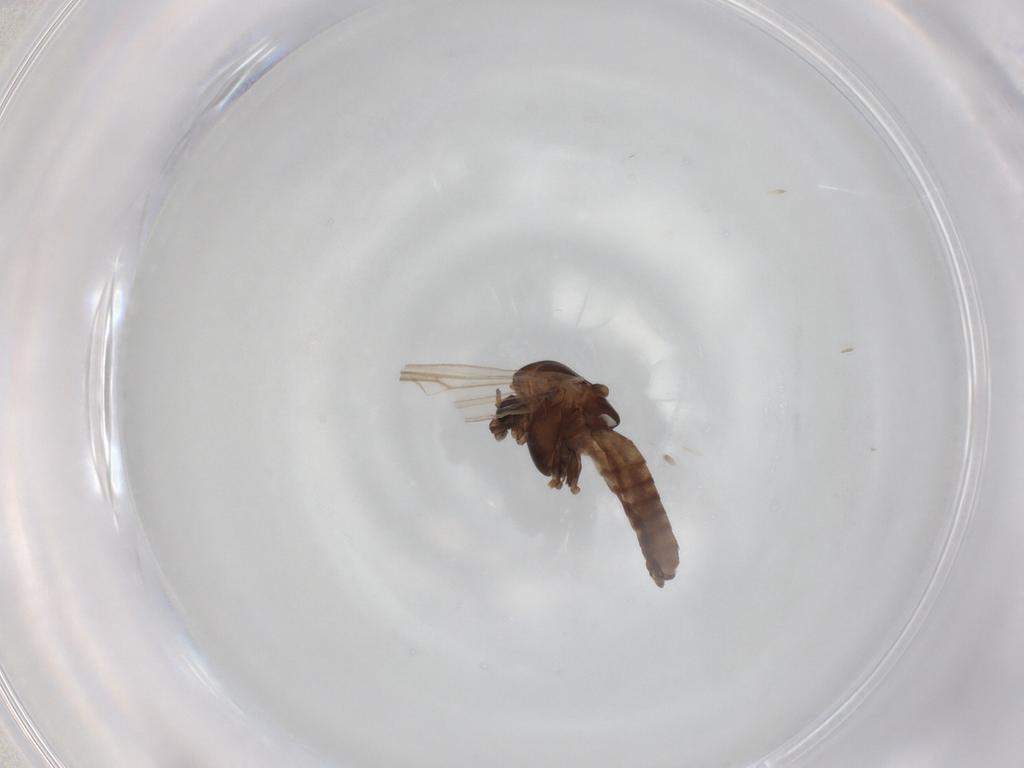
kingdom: Animalia
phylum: Arthropoda
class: Insecta
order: Diptera
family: Chironomidae
